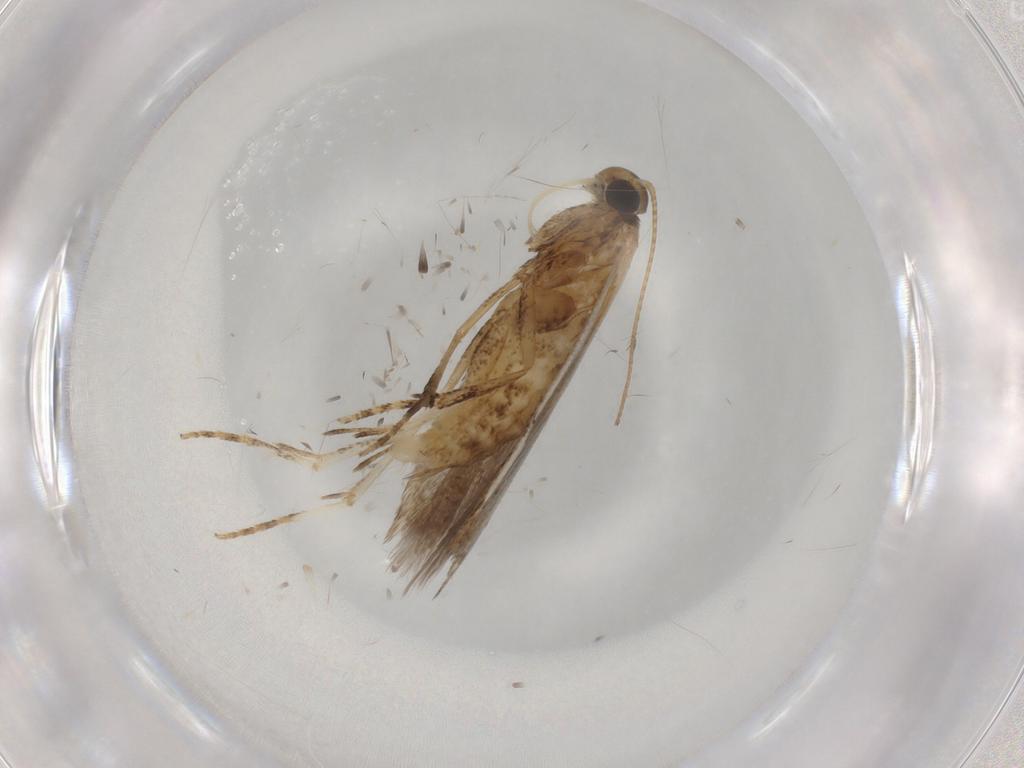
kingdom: Animalia
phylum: Arthropoda
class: Insecta
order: Lepidoptera
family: Gelechiidae
